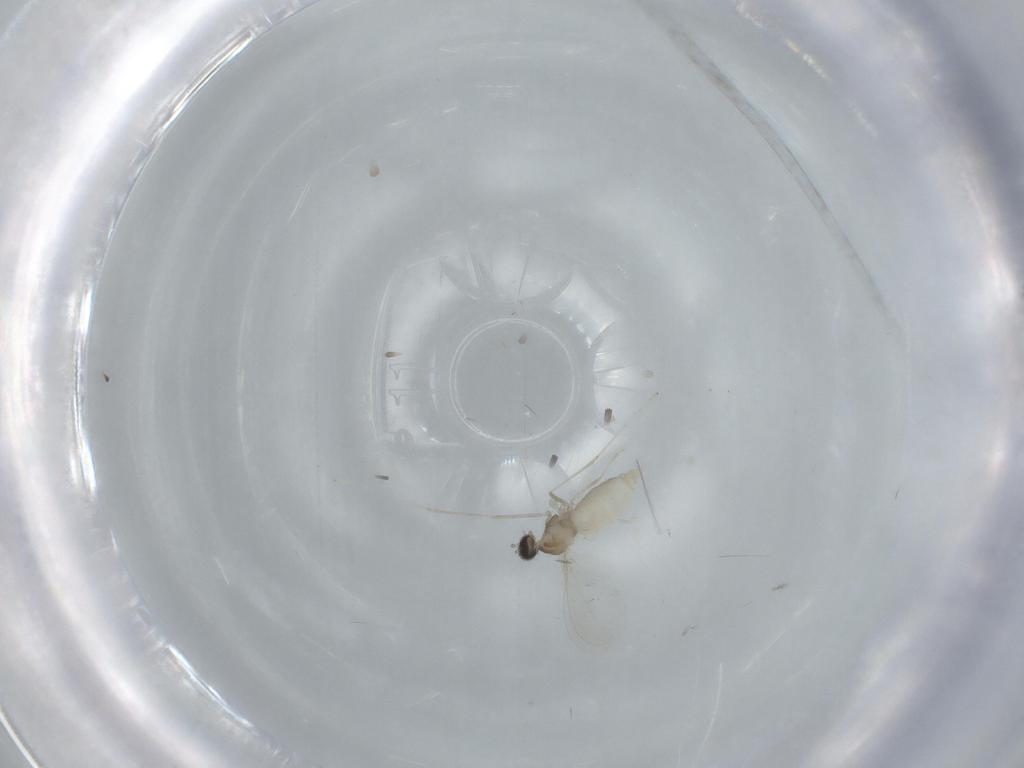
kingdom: Animalia
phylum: Arthropoda
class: Insecta
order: Diptera
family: Cecidomyiidae
